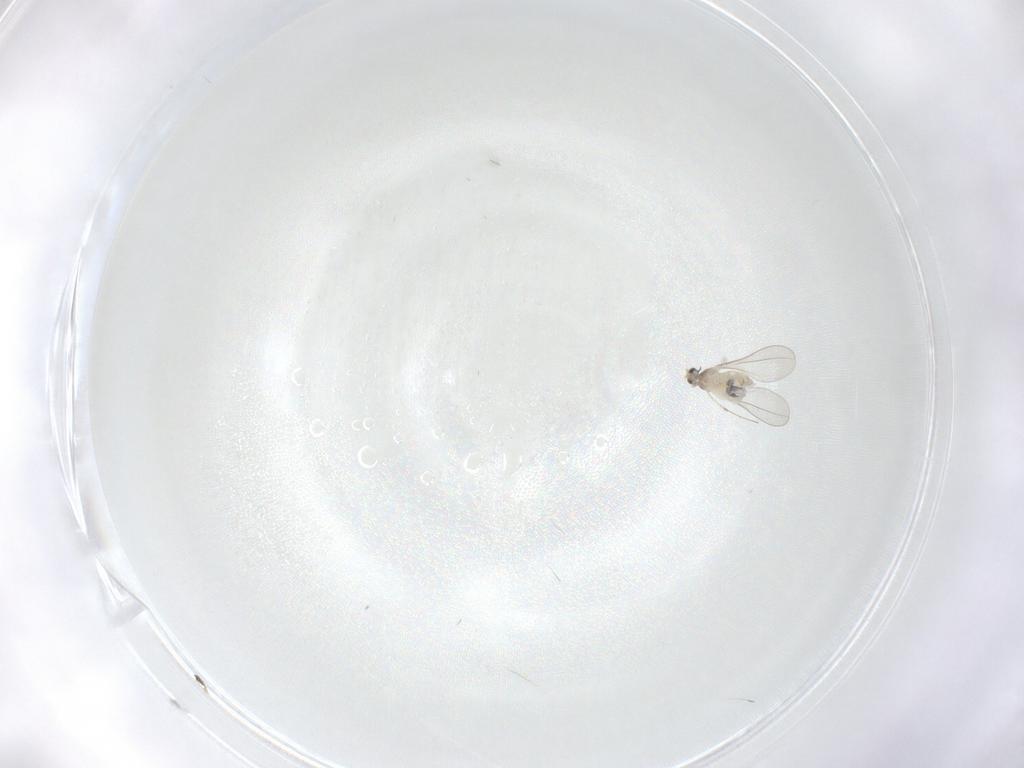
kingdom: Animalia
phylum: Arthropoda
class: Insecta
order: Diptera
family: Cecidomyiidae
